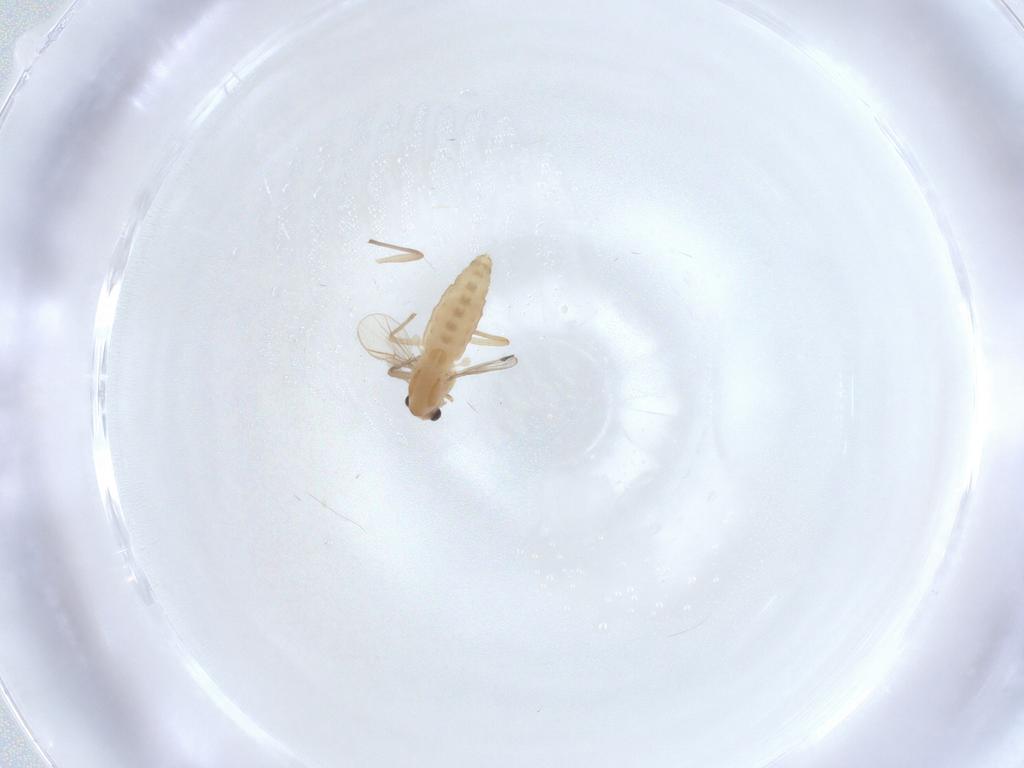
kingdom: Animalia
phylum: Arthropoda
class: Insecta
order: Diptera
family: Chironomidae
